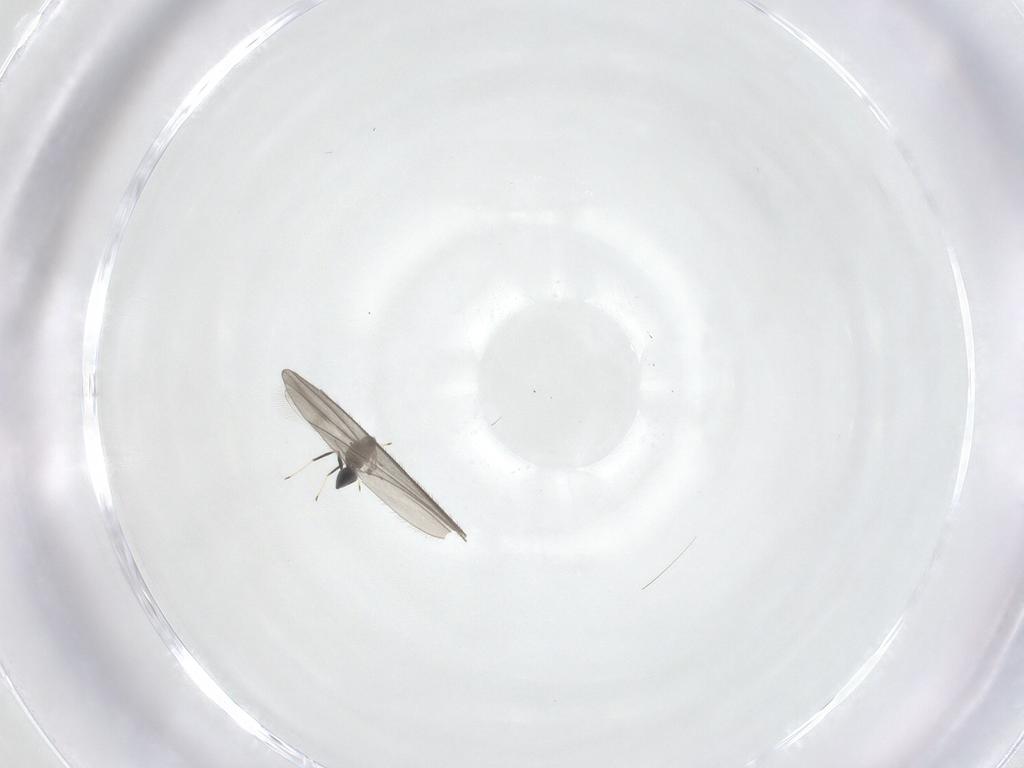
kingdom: Animalia
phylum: Arthropoda
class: Insecta
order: Hymenoptera
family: Mymaridae
